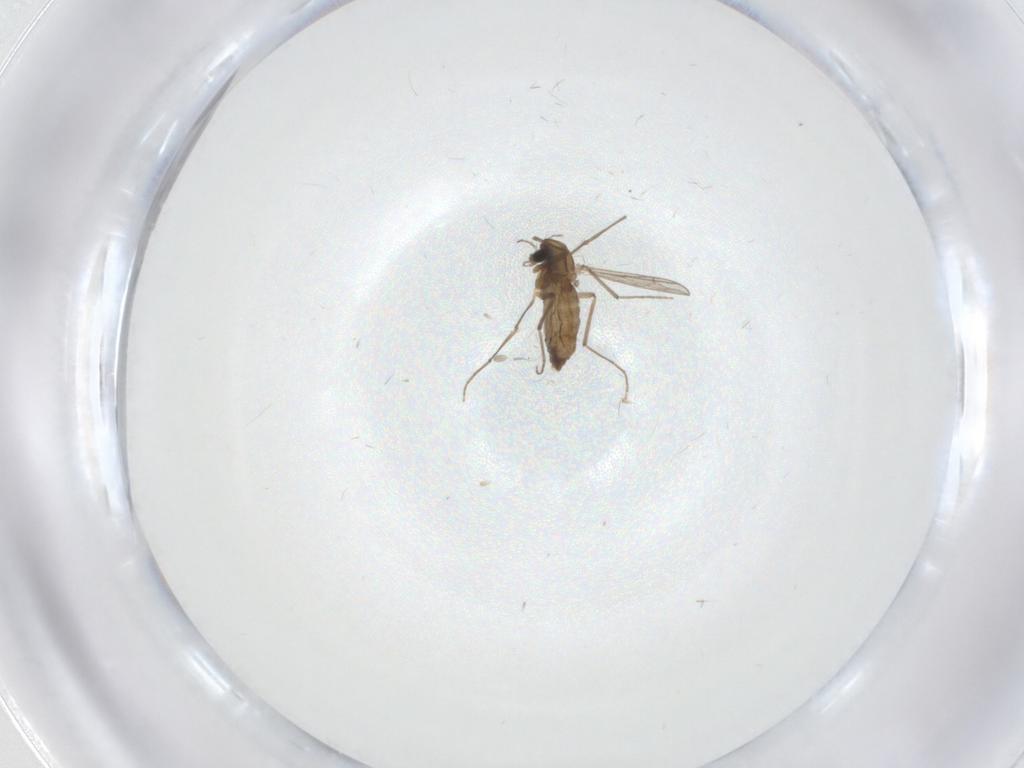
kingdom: Animalia
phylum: Arthropoda
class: Insecta
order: Diptera
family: Chironomidae
